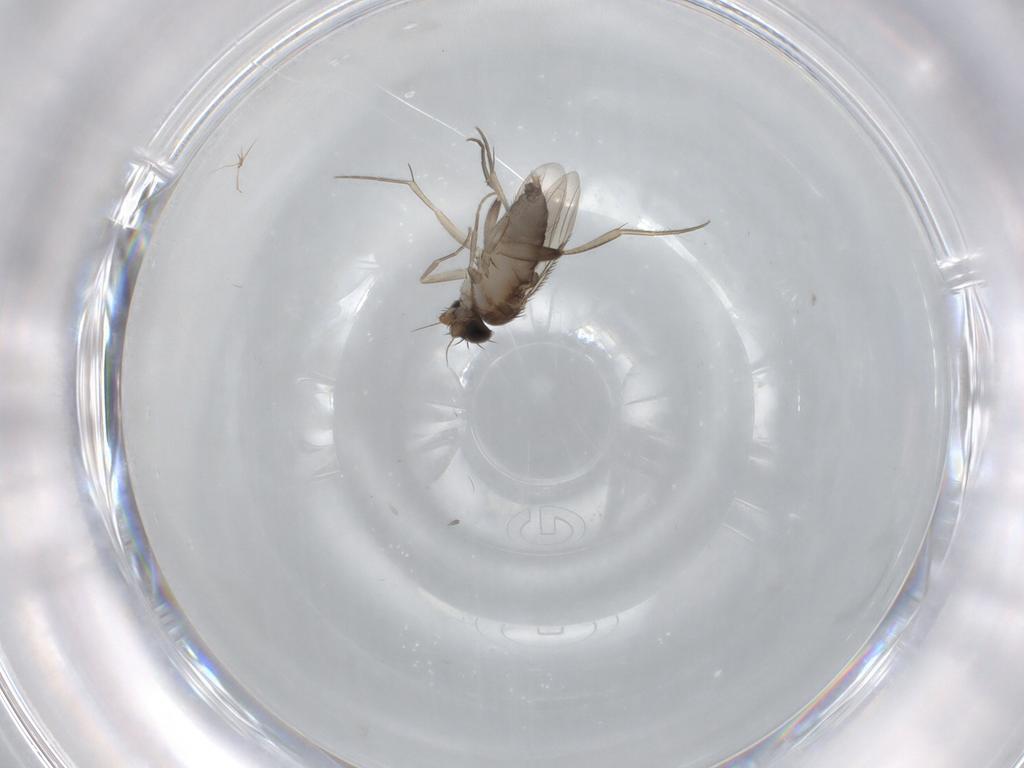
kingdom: Animalia
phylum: Arthropoda
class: Insecta
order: Diptera
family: Phoridae
